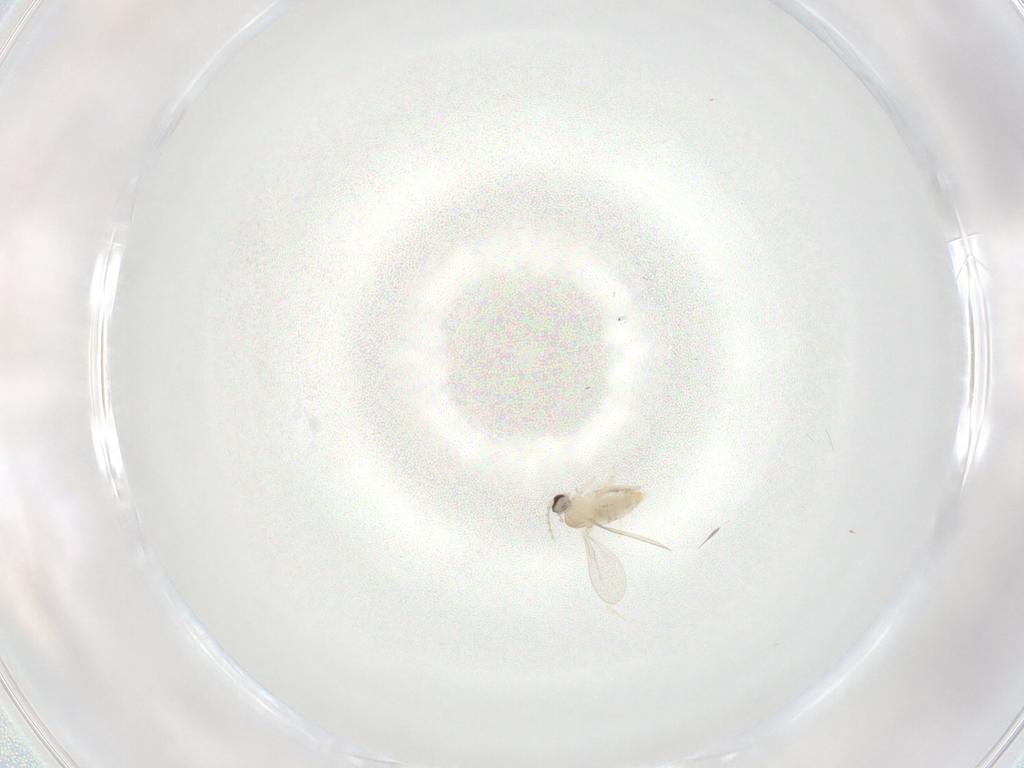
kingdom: Animalia
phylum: Arthropoda
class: Insecta
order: Diptera
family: Cecidomyiidae
